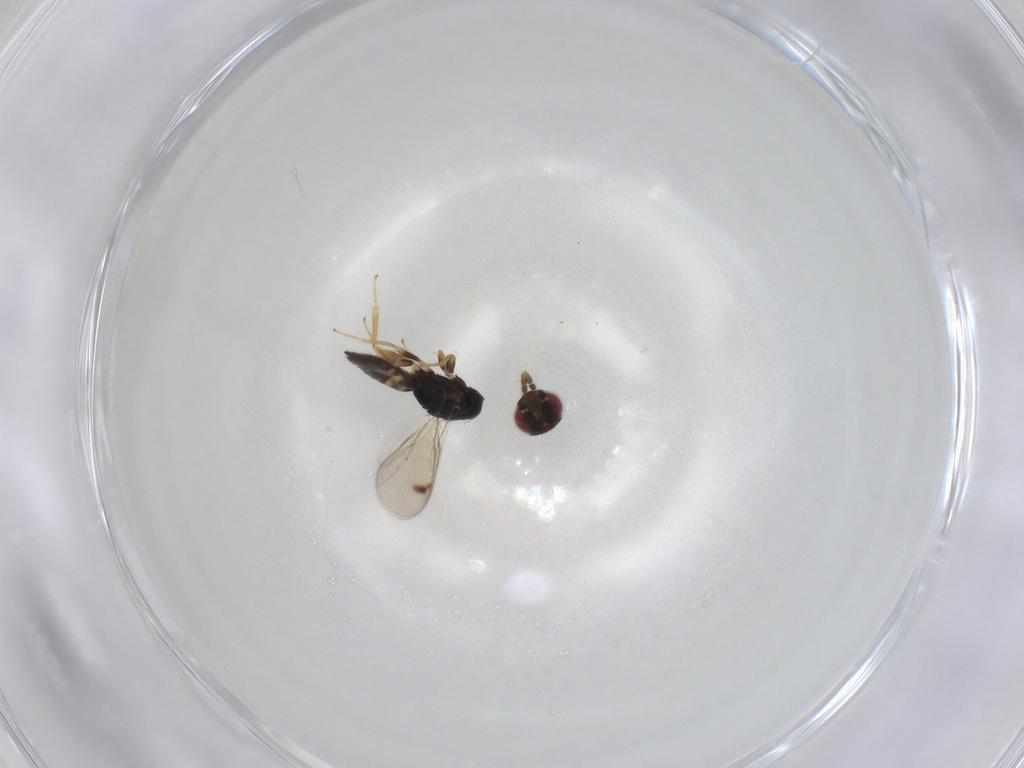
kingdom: Animalia
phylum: Arthropoda
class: Insecta
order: Hymenoptera
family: Eulophidae
